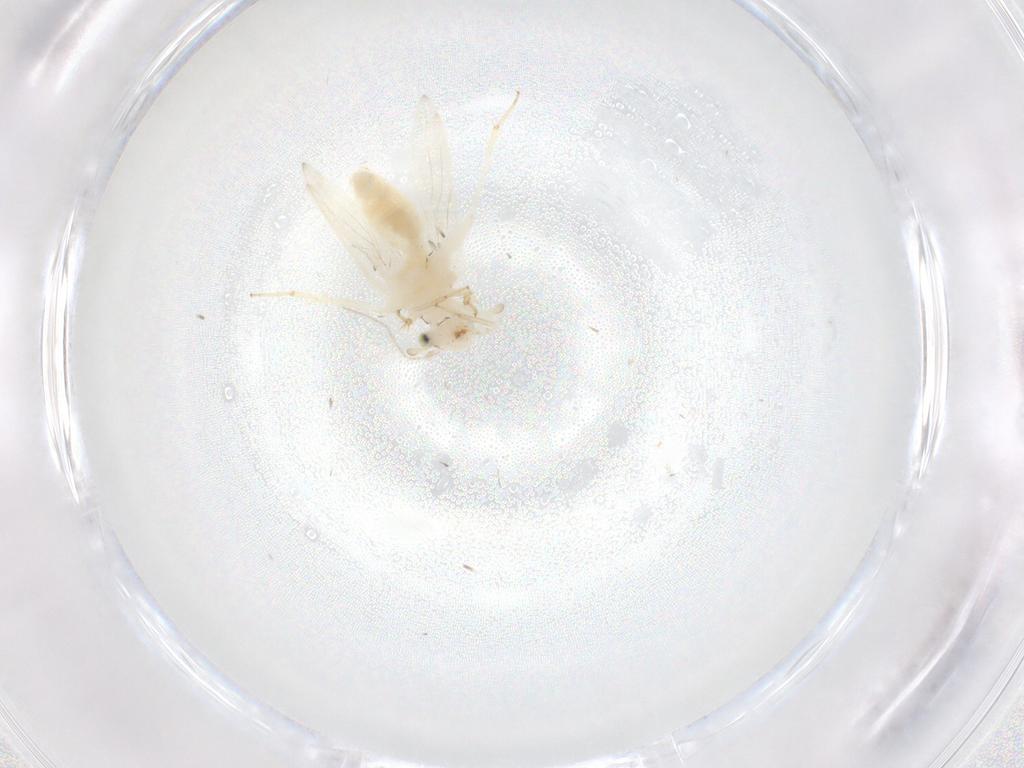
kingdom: Animalia
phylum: Arthropoda
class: Insecta
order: Psocodea
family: Lepidopsocidae
